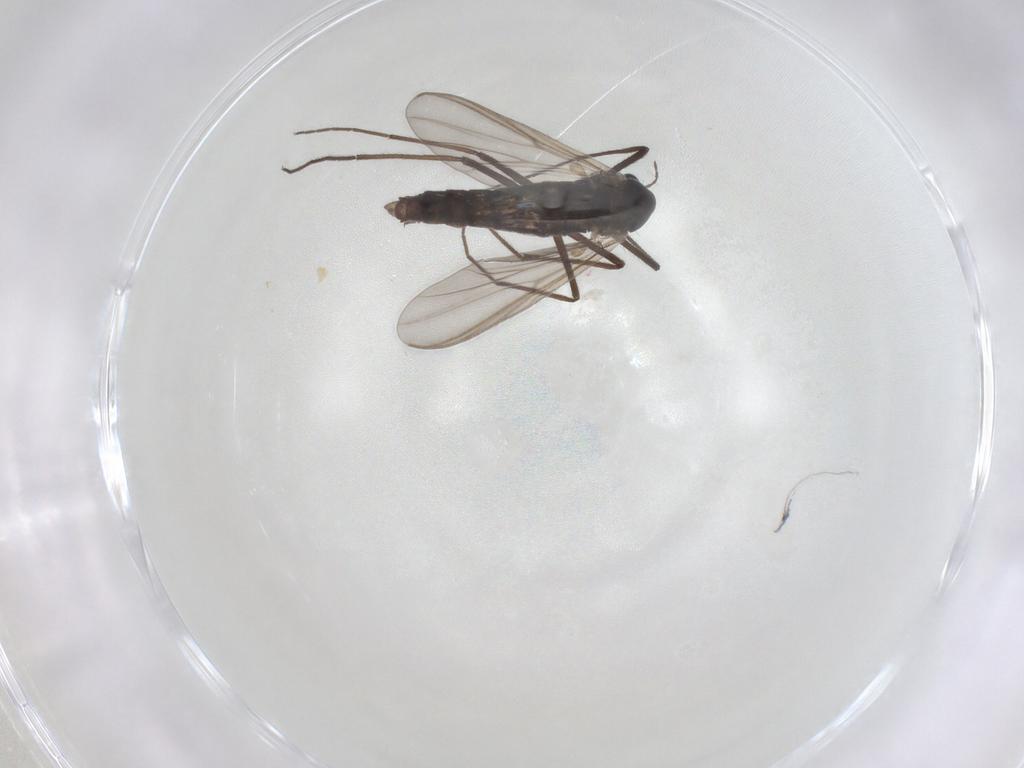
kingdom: Animalia
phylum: Arthropoda
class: Insecta
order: Diptera
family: Chironomidae
